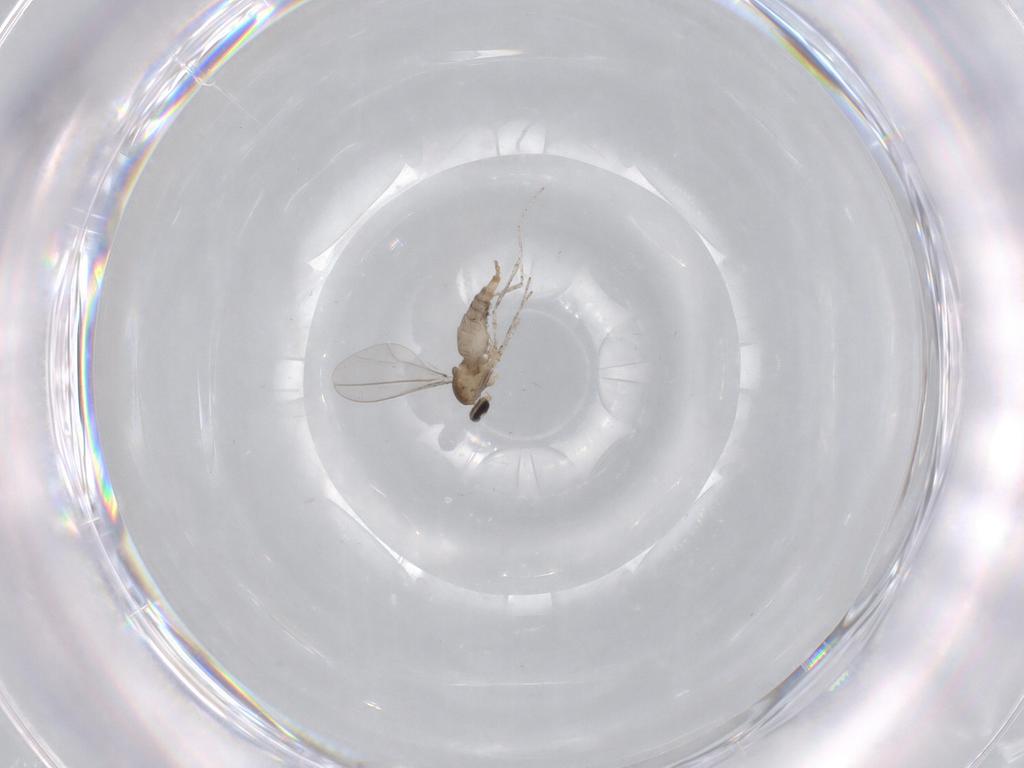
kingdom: Animalia
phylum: Arthropoda
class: Insecta
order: Diptera
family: Cecidomyiidae
